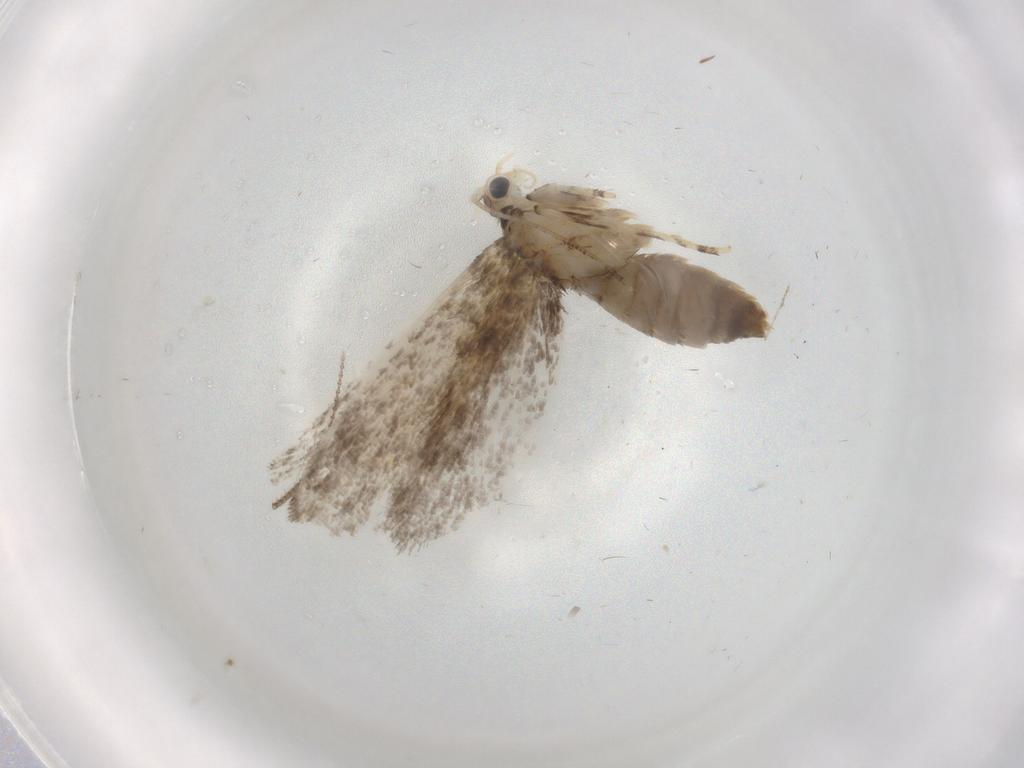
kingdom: Animalia
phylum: Arthropoda
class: Insecta
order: Lepidoptera
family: Tineidae
